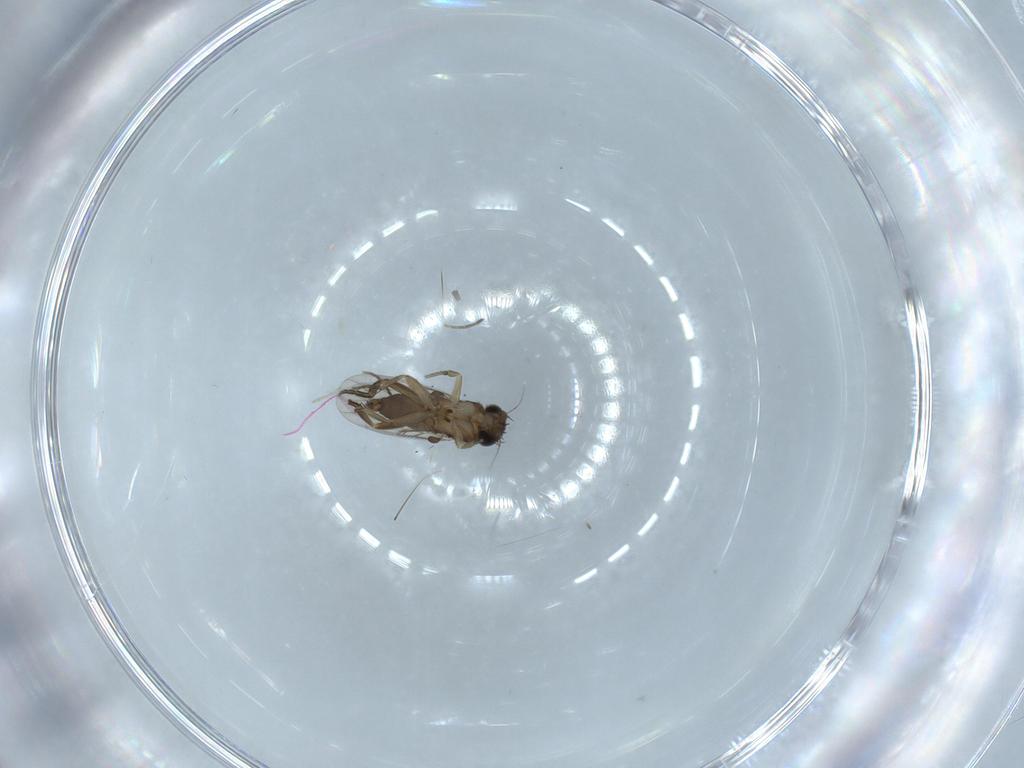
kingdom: Animalia
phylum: Arthropoda
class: Insecta
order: Diptera
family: Phoridae
